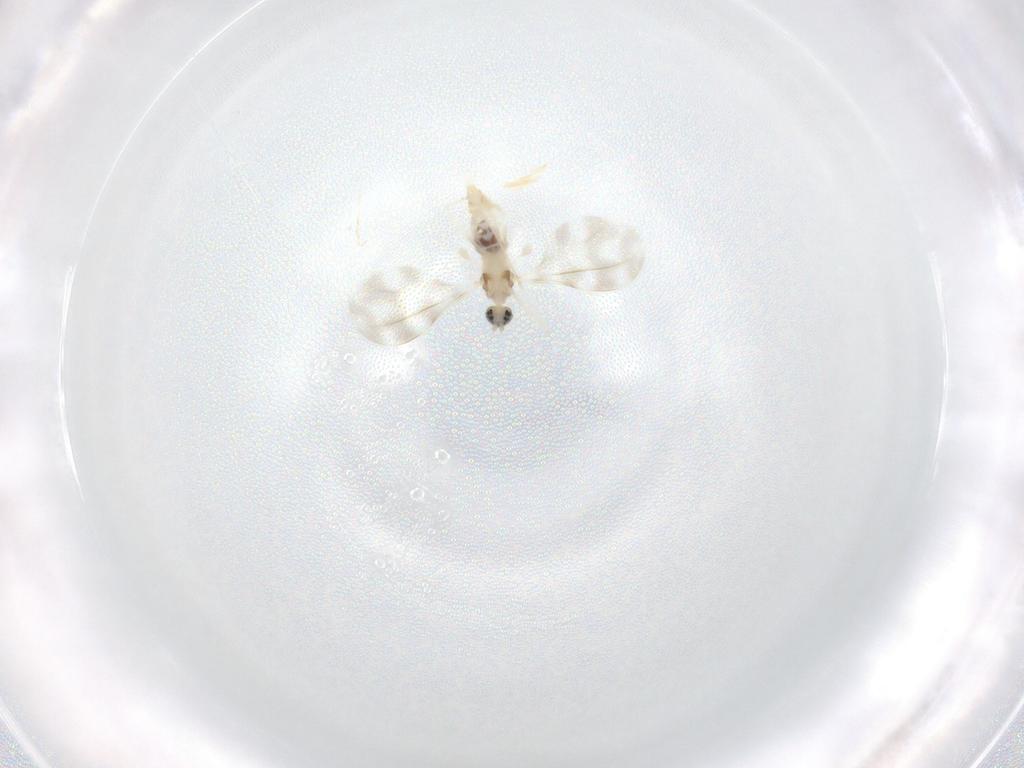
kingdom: Animalia
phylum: Arthropoda
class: Insecta
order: Diptera
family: Cecidomyiidae
